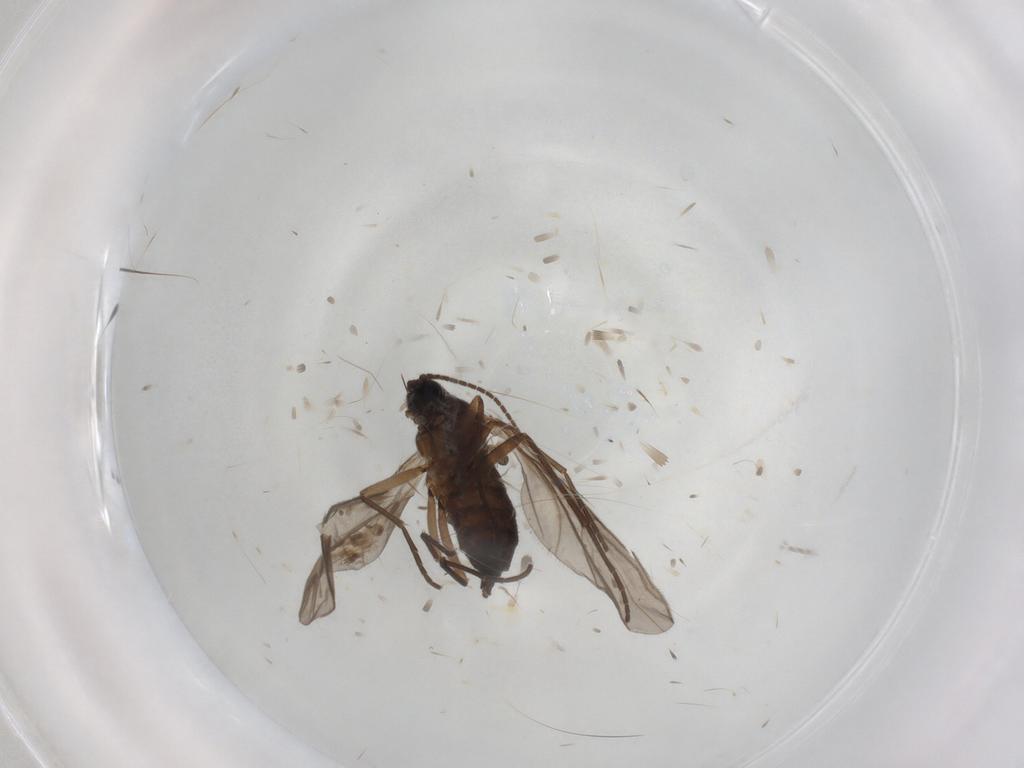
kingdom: Animalia
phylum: Arthropoda
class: Insecta
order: Diptera
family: Sciaridae
